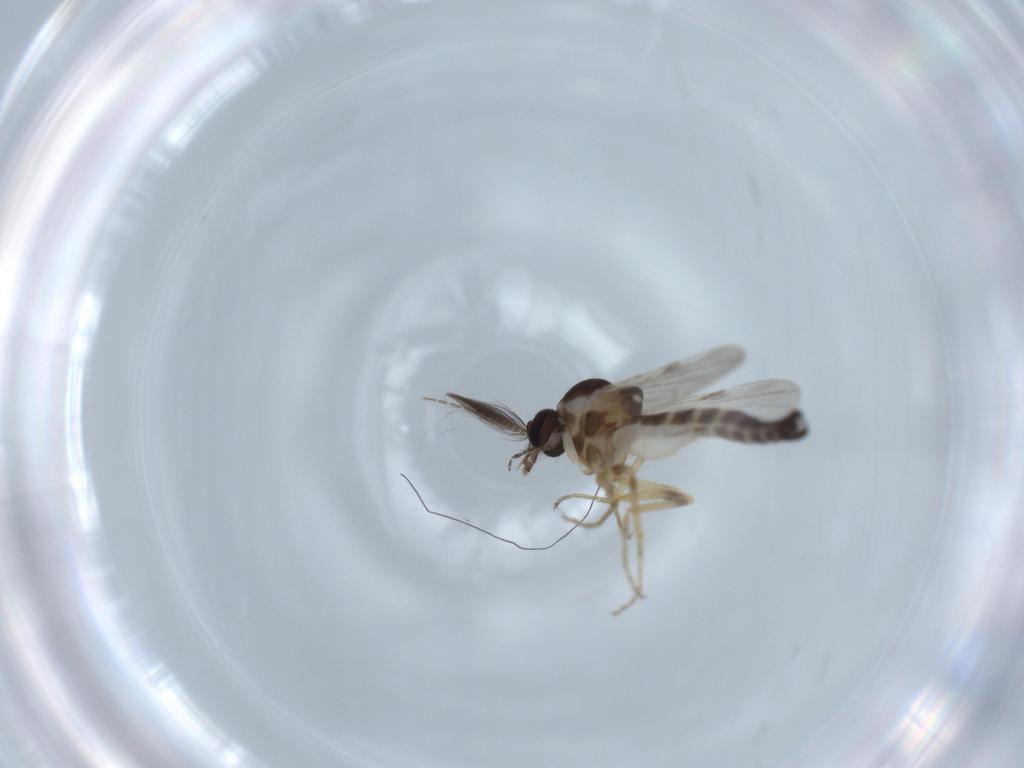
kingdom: Animalia
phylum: Arthropoda
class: Insecta
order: Diptera
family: Ceratopogonidae
